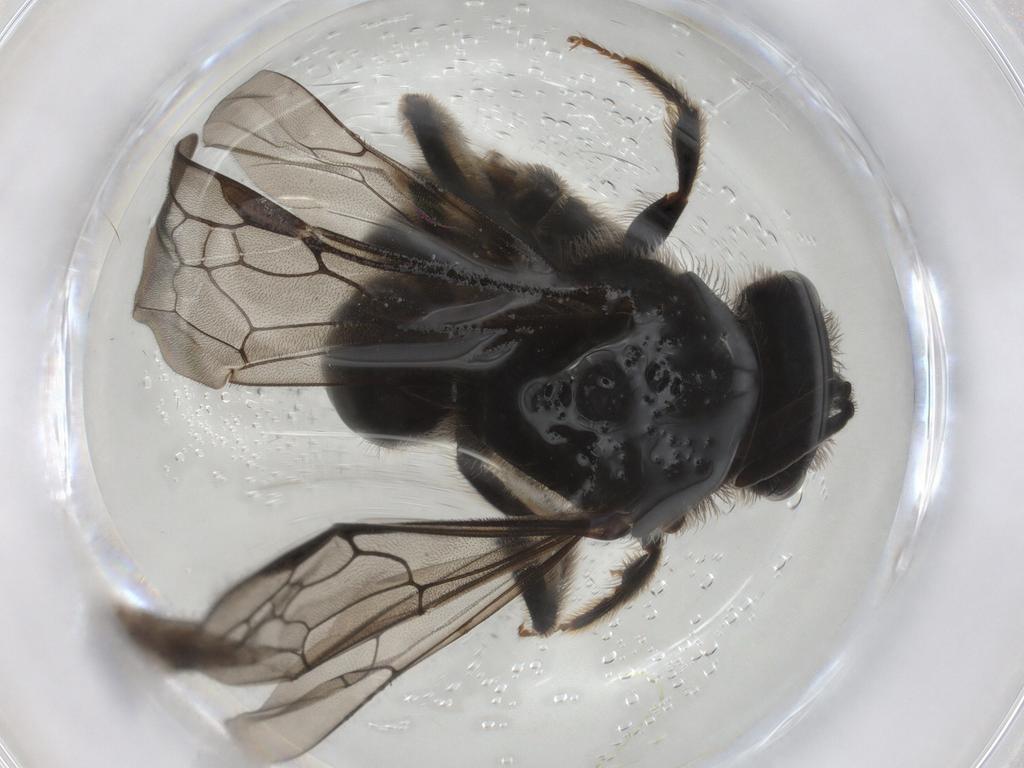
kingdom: Animalia
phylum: Arthropoda
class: Insecta
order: Hymenoptera
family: Halictidae
